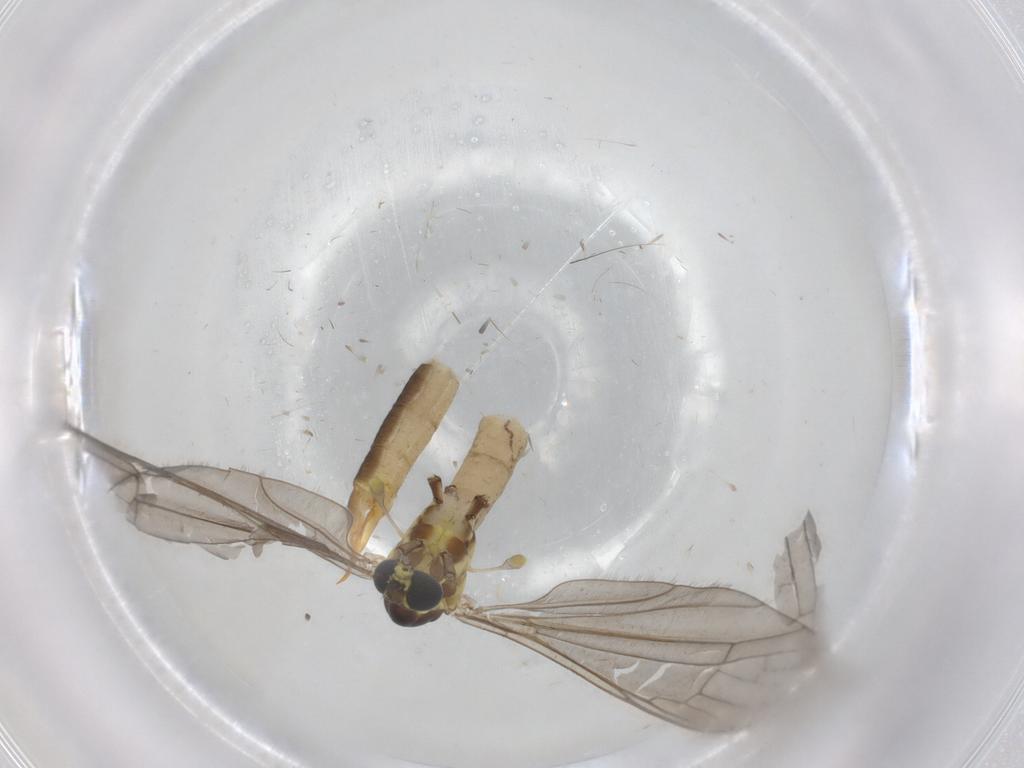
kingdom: Animalia
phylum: Arthropoda
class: Insecta
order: Diptera
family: Limoniidae
